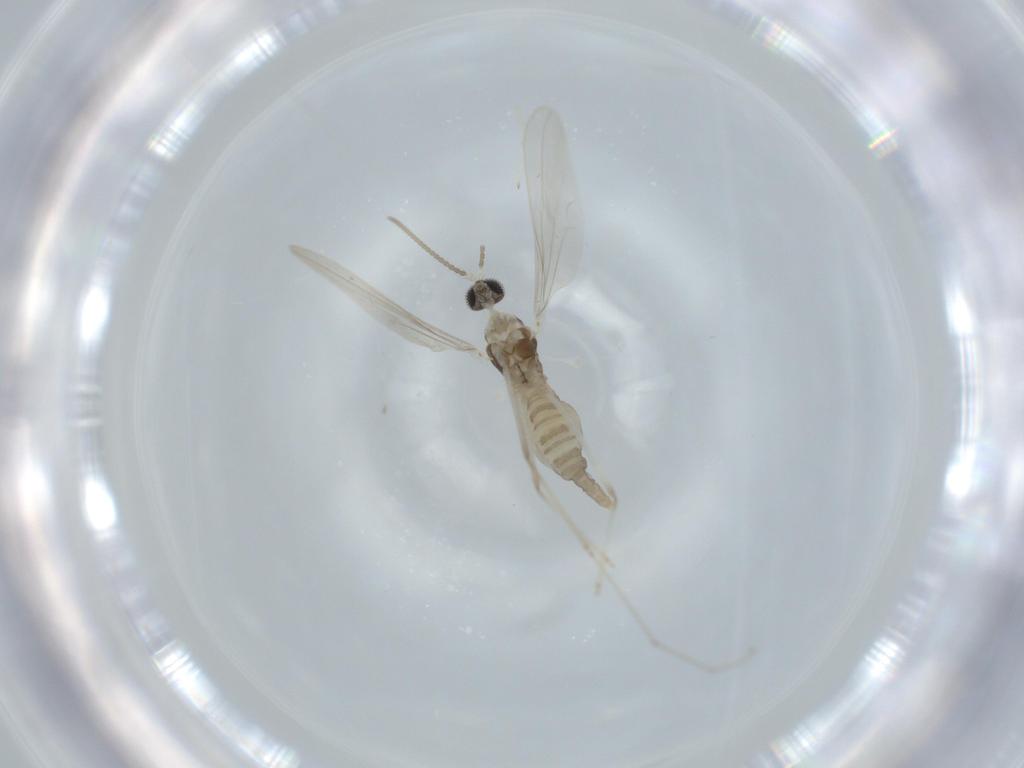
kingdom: Animalia
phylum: Arthropoda
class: Insecta
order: Diptera
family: Cecidomyiidae
